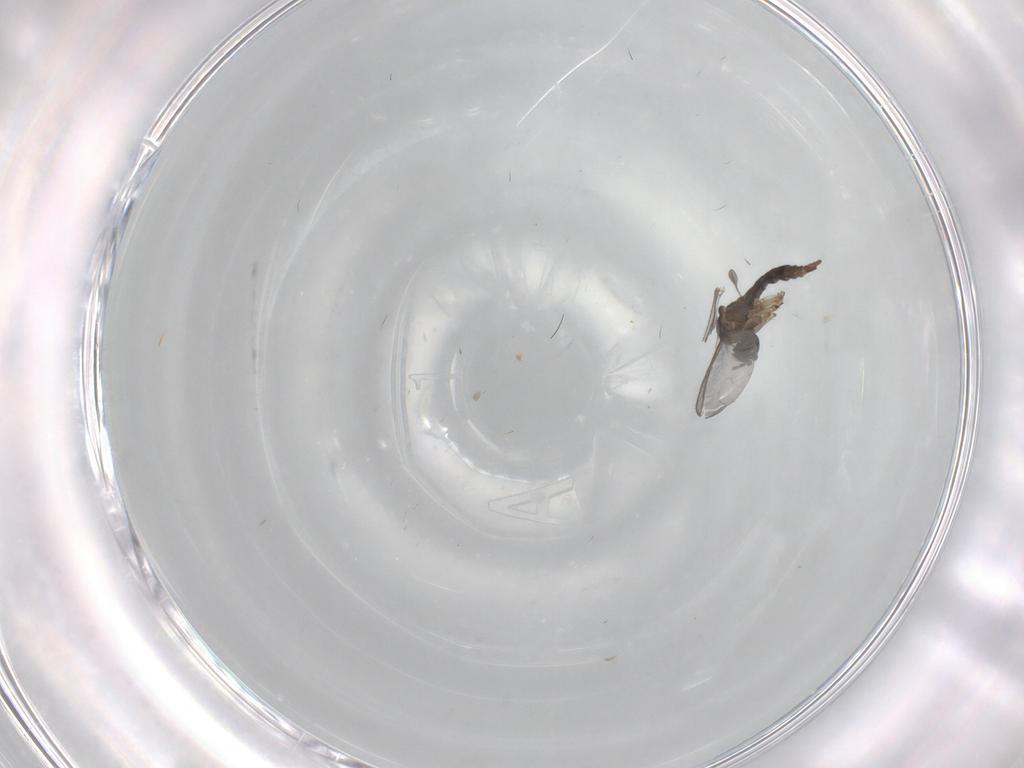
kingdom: Animalia
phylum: Arthropoda
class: Insecta
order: Diptera
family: Sciaridae
